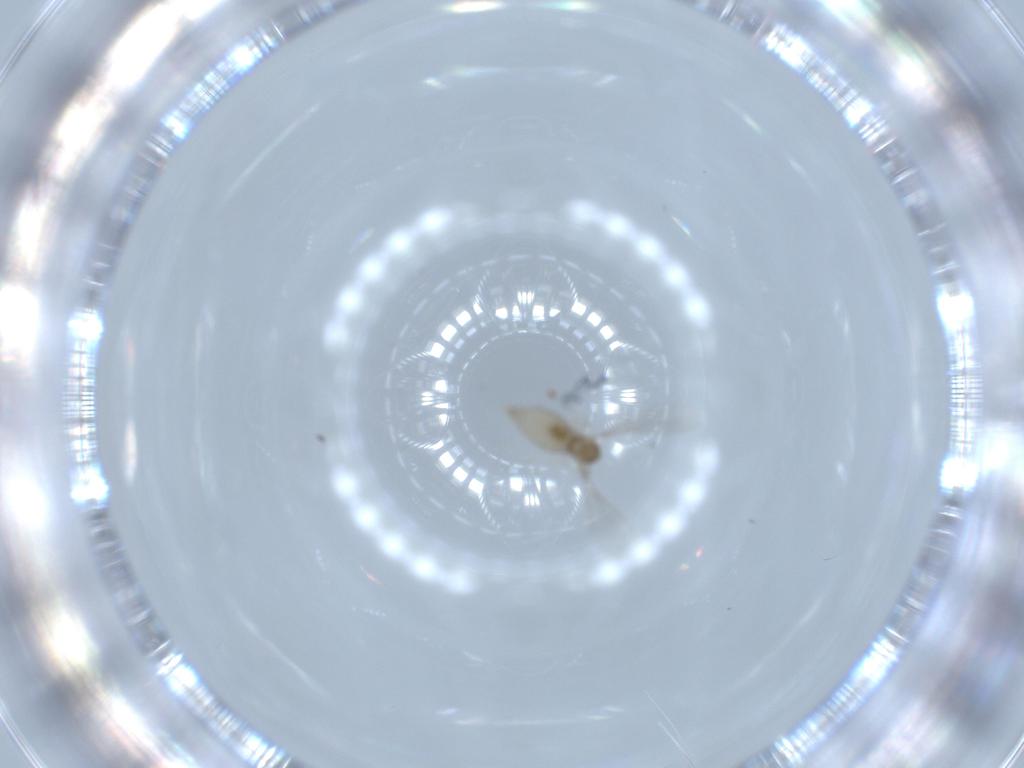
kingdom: Animalia
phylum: Arthropoda
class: Insecta
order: Diptera
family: Cecidomyiidae
